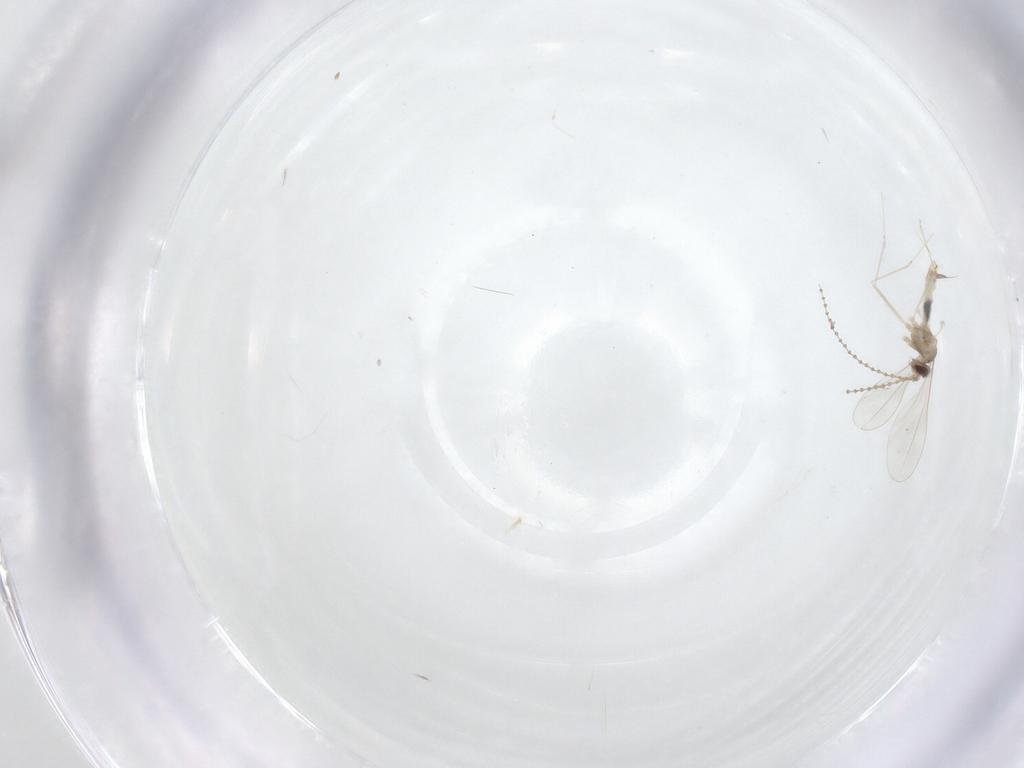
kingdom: Animalia
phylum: Arthropoda
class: Insecta
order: Diptera
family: Cecidomyiidae
